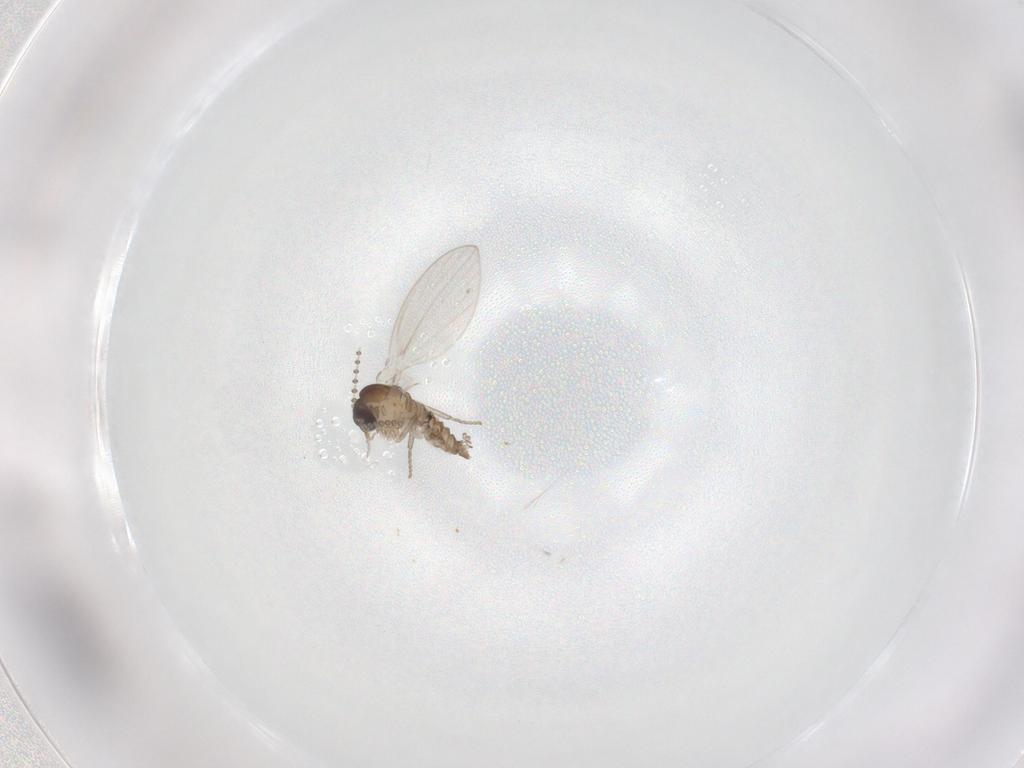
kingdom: Animalia
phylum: Arthropoda
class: Insecta
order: Diptera
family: Psychodidae
